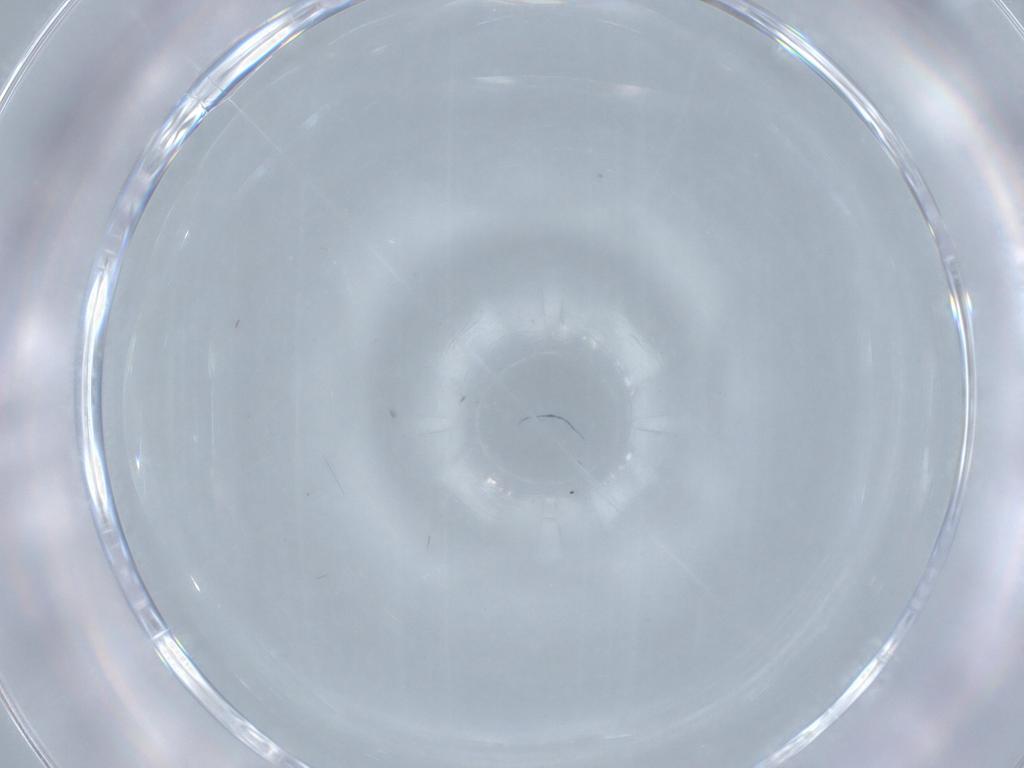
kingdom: Animalia
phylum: Arthropoda
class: Insecta
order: Diptera
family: Cecidomyiidae
